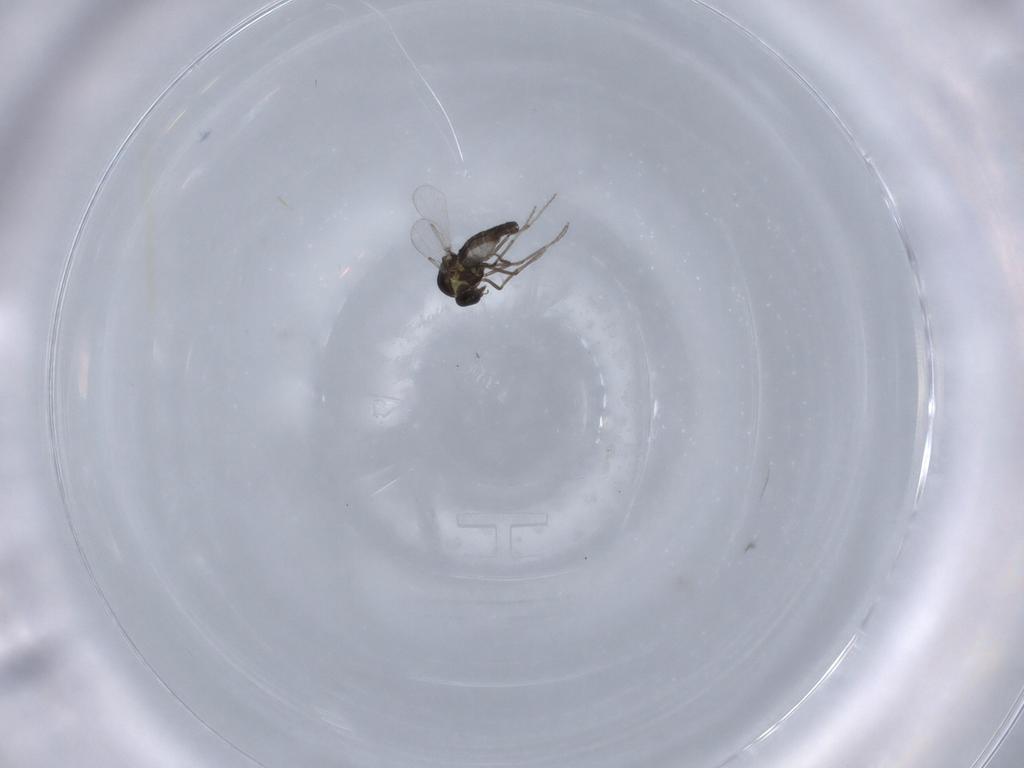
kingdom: Animalia
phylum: Arthropoda
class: Insecta
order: Diptera
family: Ceratopogonidae
